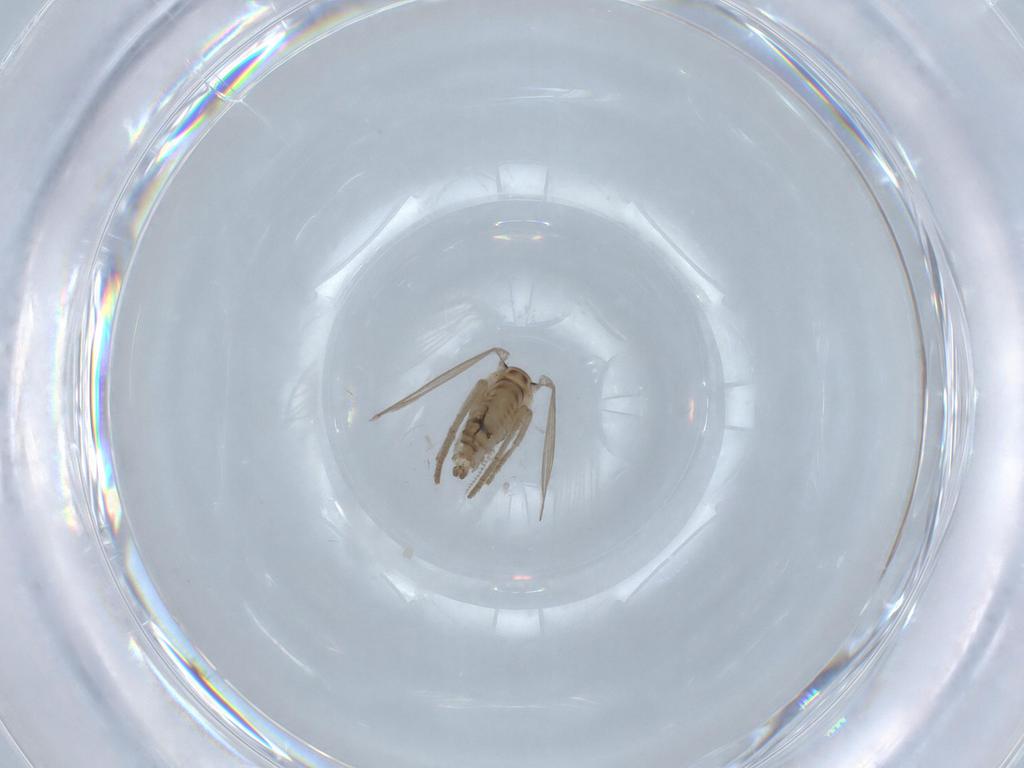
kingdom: Animalia
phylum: Arthropoda
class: Insecta
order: Diptera
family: Psychodidae
